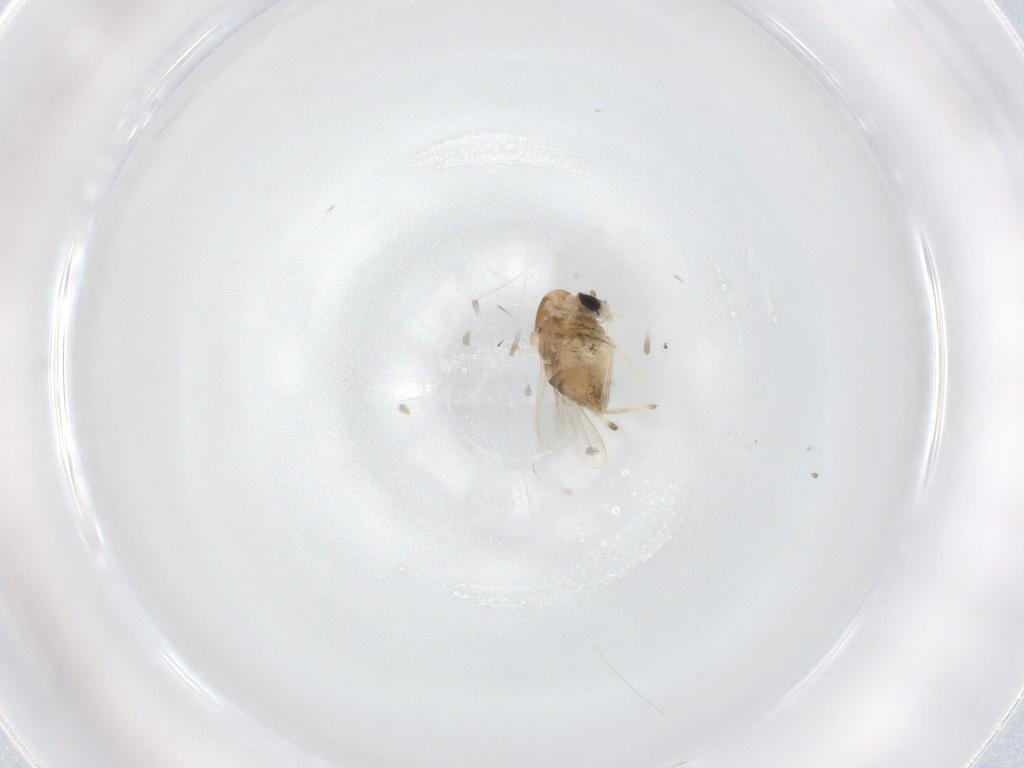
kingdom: Animalia
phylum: Arthropoda
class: Insecta
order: Diptera
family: Chironomidae
